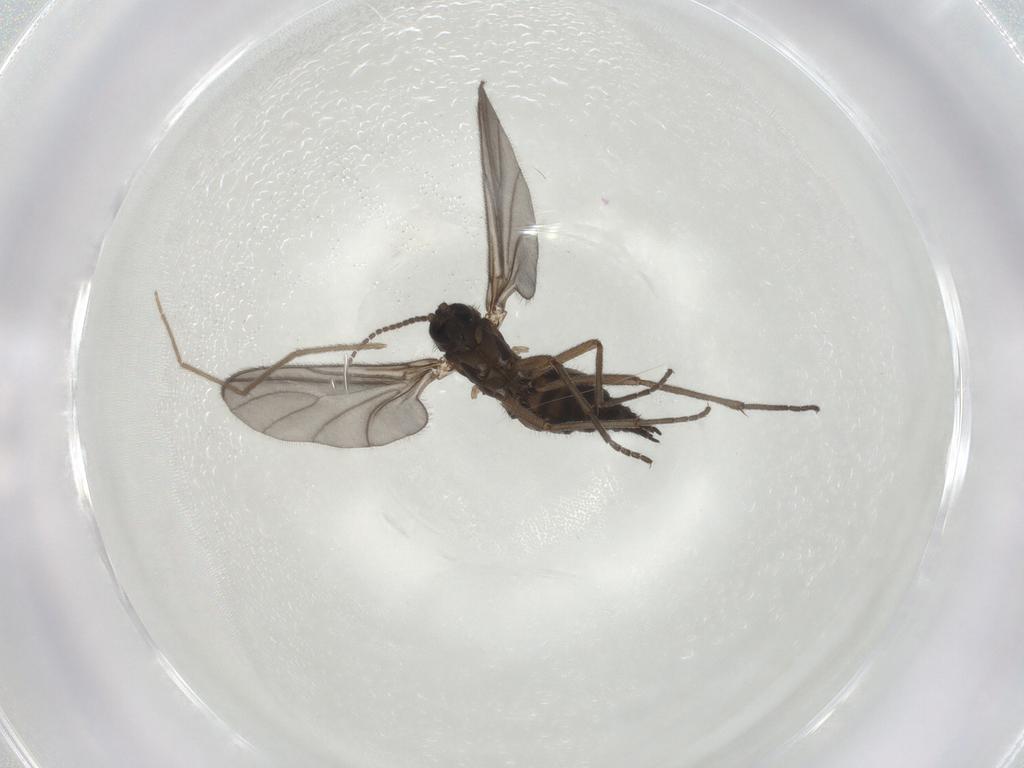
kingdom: Animalia
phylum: Arthropoda
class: Insecta
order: Diptera
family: Sciaridae
